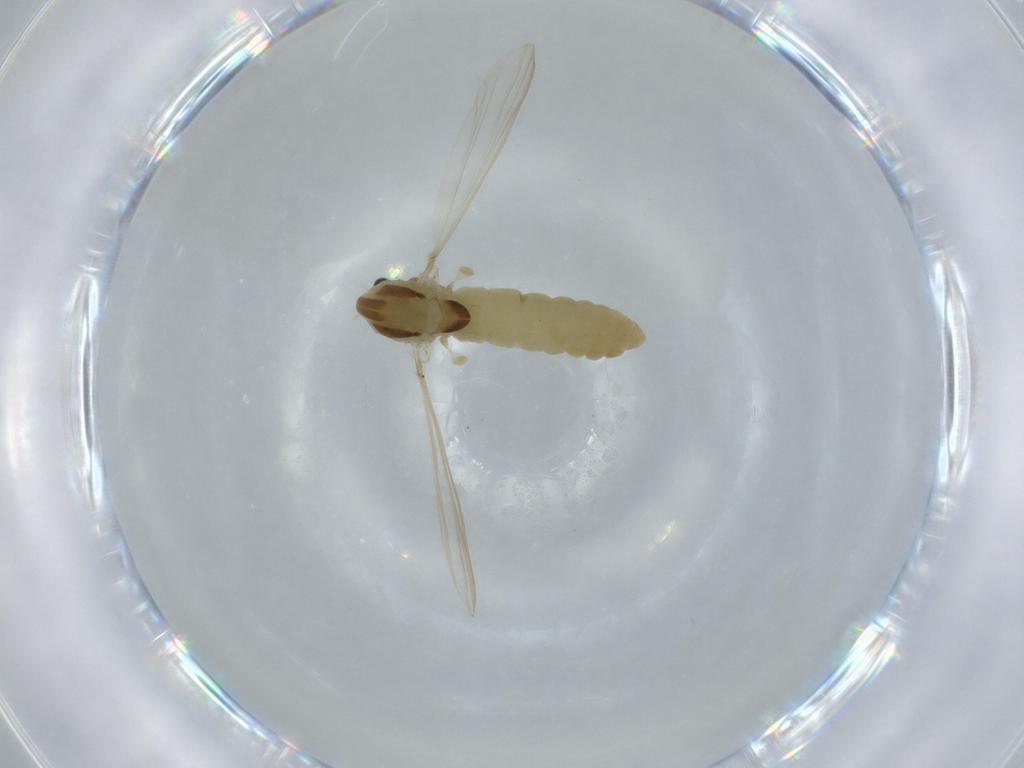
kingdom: Animalia
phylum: Arthropoda
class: Insecta
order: Diptera
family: Chironomidae
